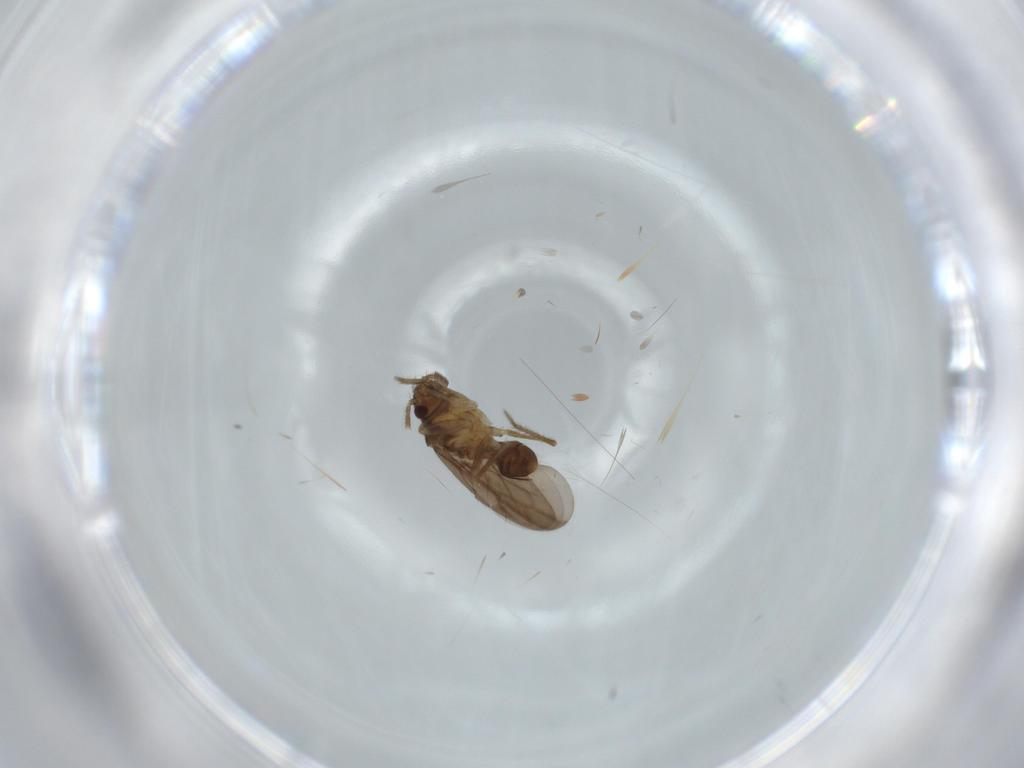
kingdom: Animalia
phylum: Arthropoda
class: Insecta
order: Hemiptera
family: Ceratocombidae
